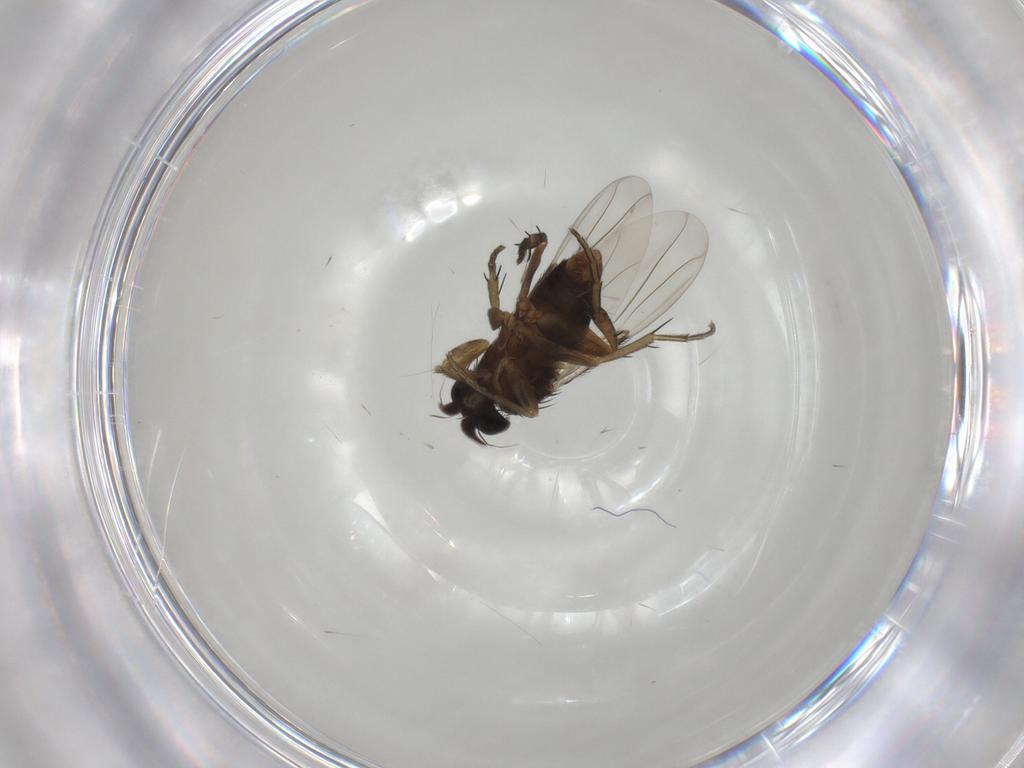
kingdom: Animalia
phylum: Arthropoda
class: Insecta
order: Diptera
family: Phoridae
